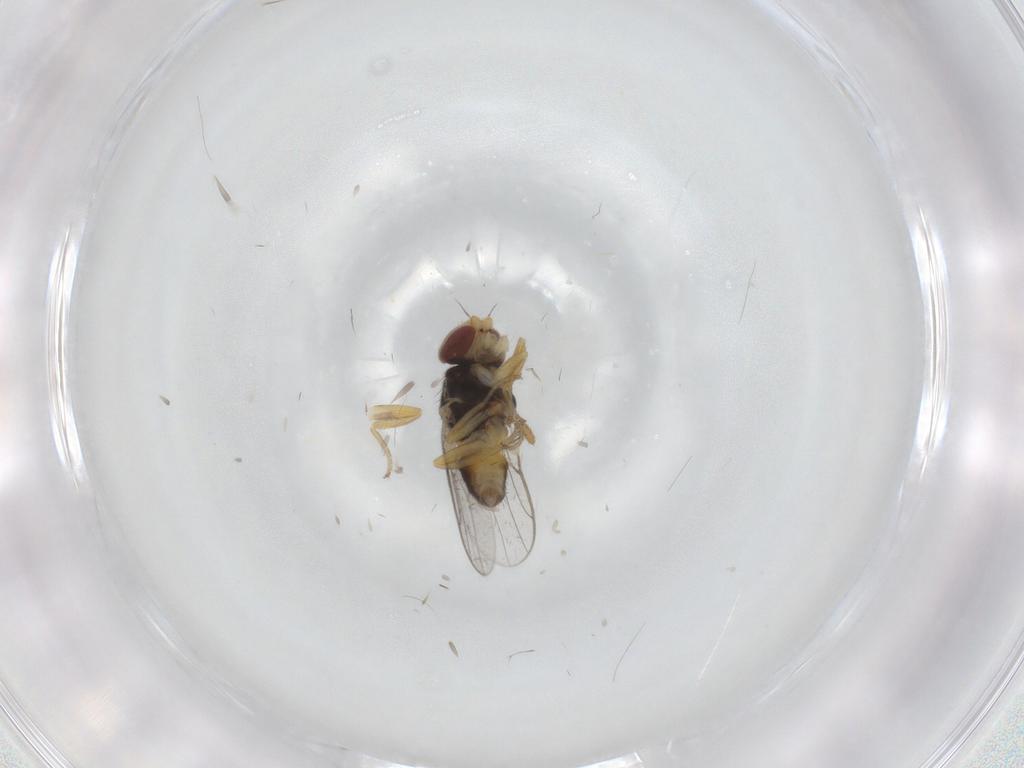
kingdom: Animalia
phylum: Arthropoda
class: Insecta
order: Diptera
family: Chloropidae
